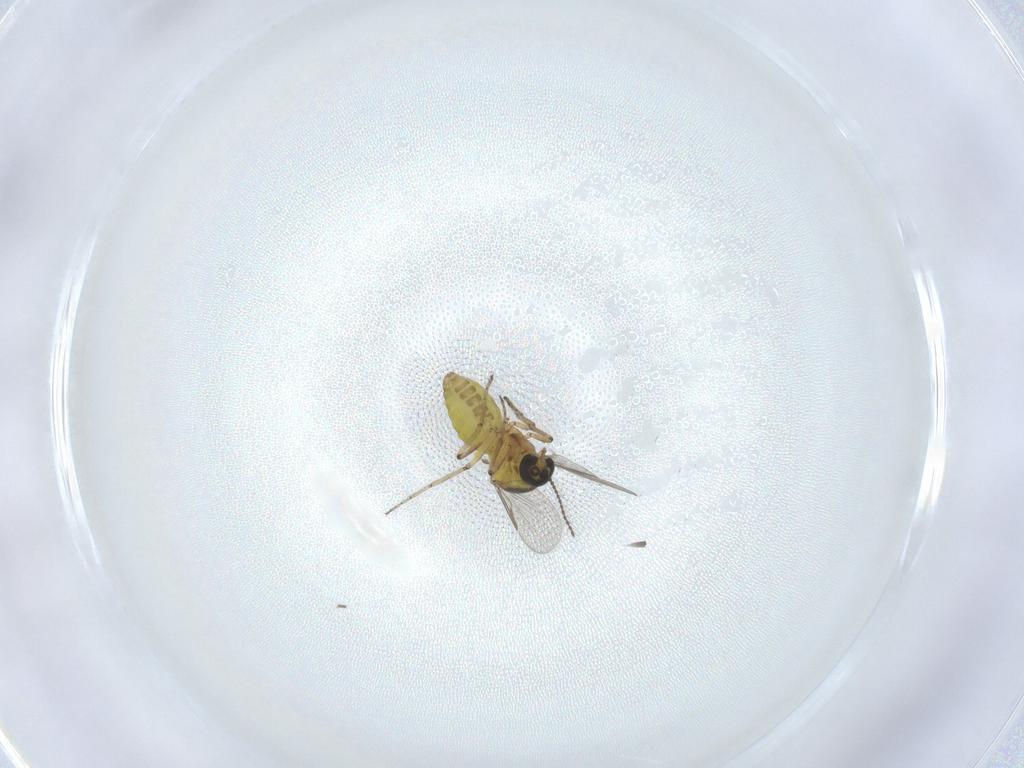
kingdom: Animalia
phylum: Arthropoda
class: Insecta
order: Diptera
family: Ceratopogonidae
